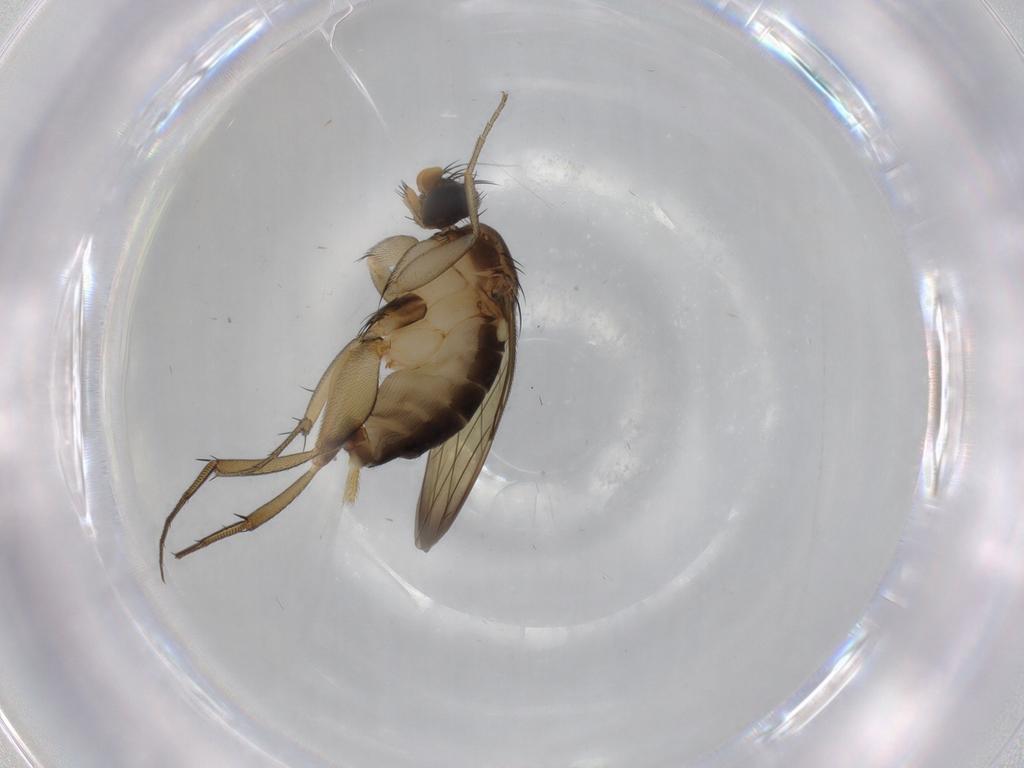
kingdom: Animalia
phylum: Arthropoda
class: Insecta
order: Diptera
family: Phoridae
